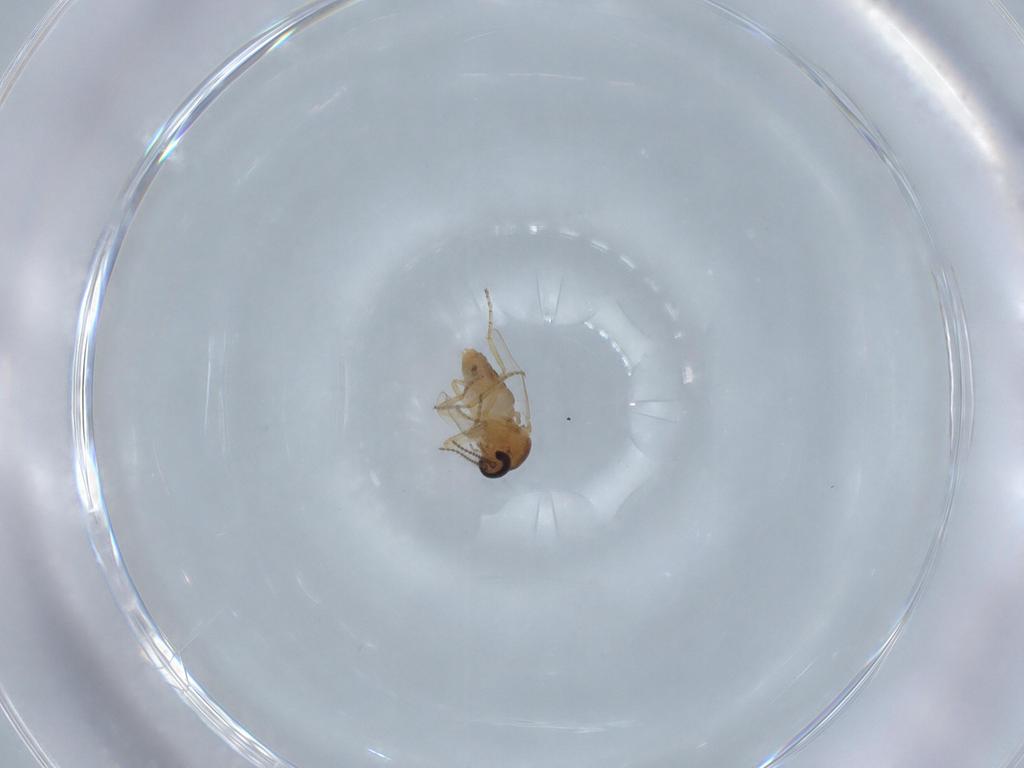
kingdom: Animalia
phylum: Arthropoda
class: Insecta
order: Diptera
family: Ceratopogonidae
